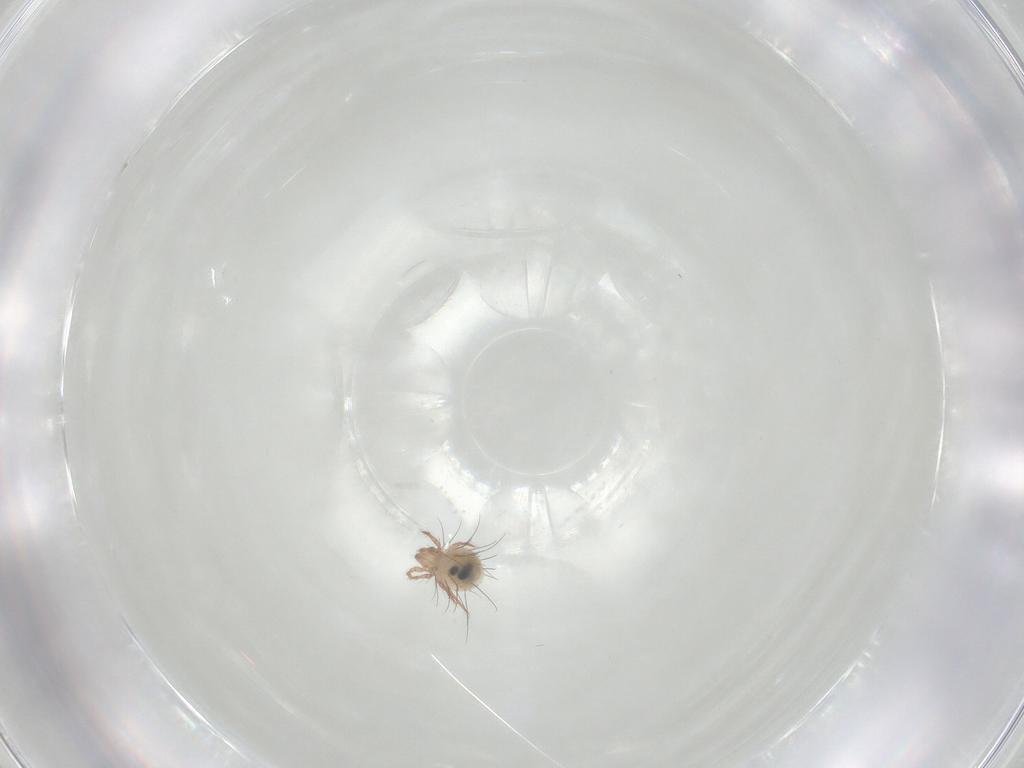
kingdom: Animalia
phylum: Arthropoda
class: Arachnida
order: Sarcoptiformes
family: Ceratozetidae
